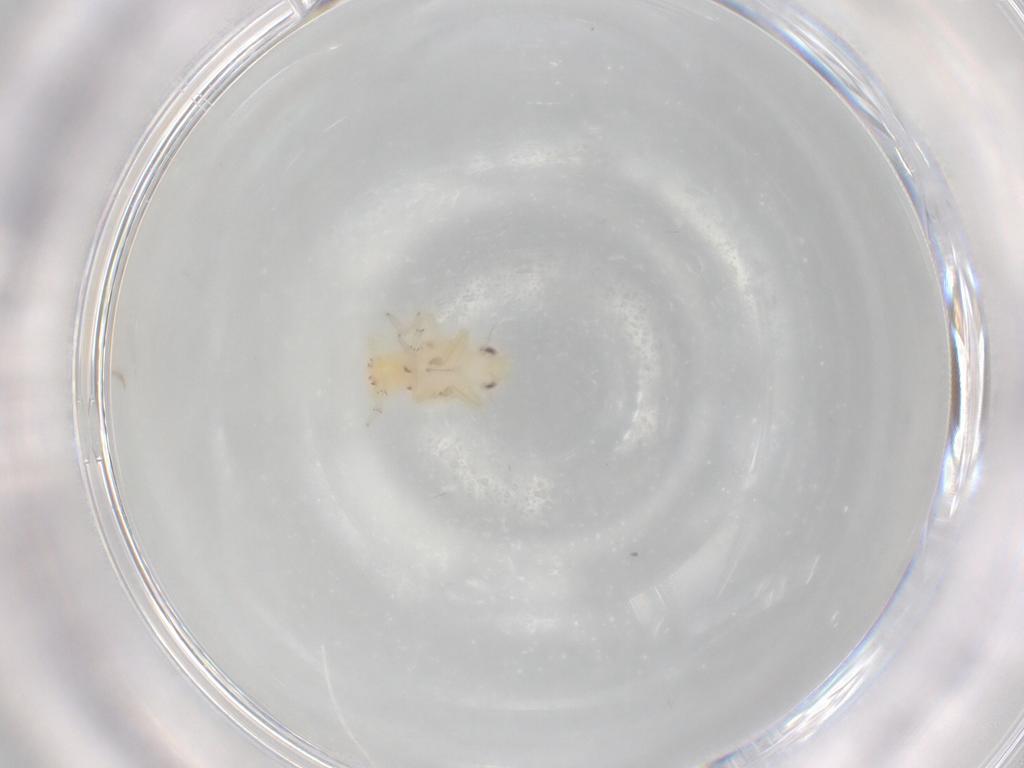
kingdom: Animalia
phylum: Arthropoda
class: Insecta
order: Hemiptera
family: Tropiduchidae
